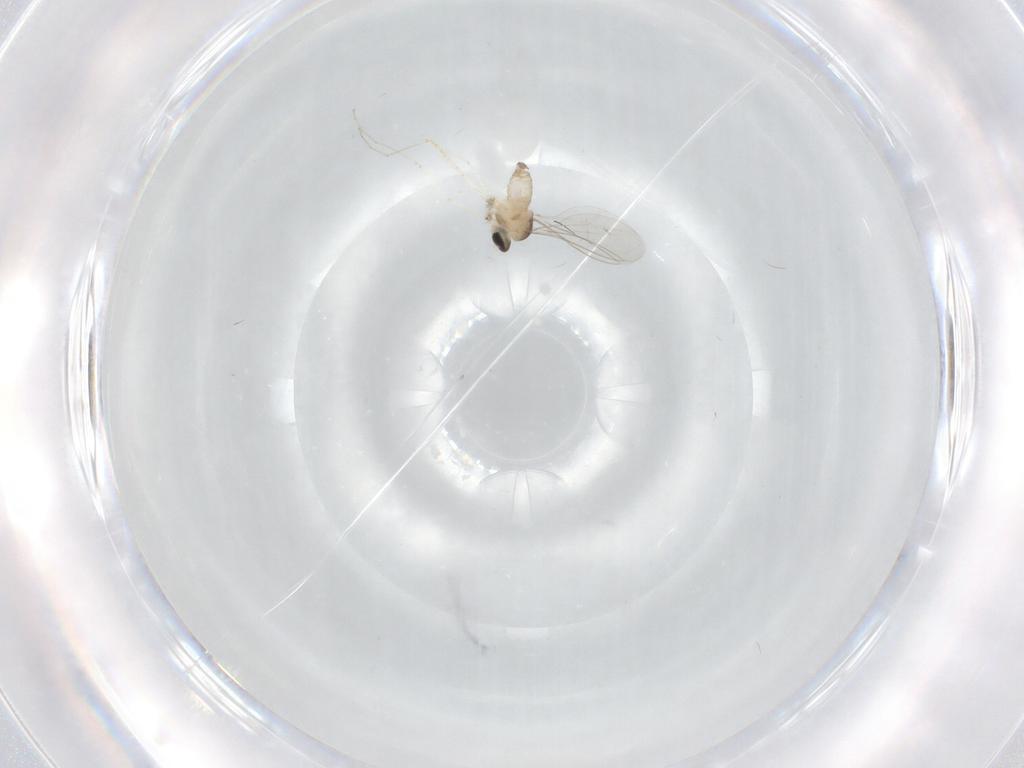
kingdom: Animalia
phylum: Arthropoda
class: Insecta
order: Diptera
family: Cecidomyiidae
